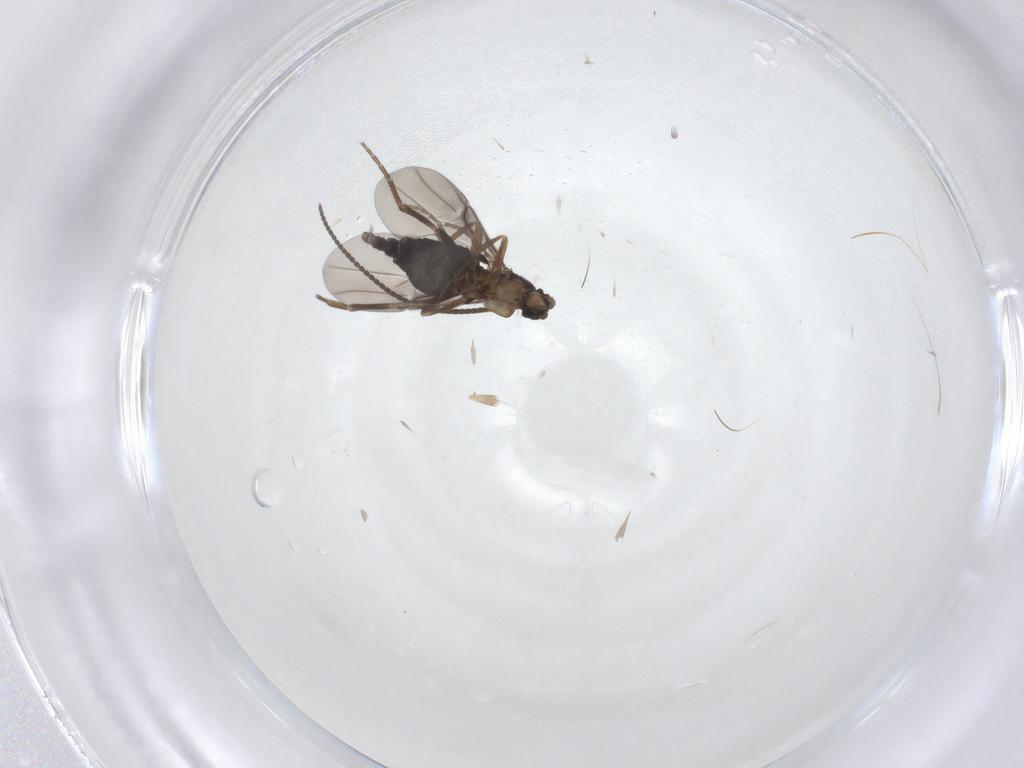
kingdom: Animalia
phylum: Arthropoda
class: Insecta
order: Diptera
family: Phoridae
